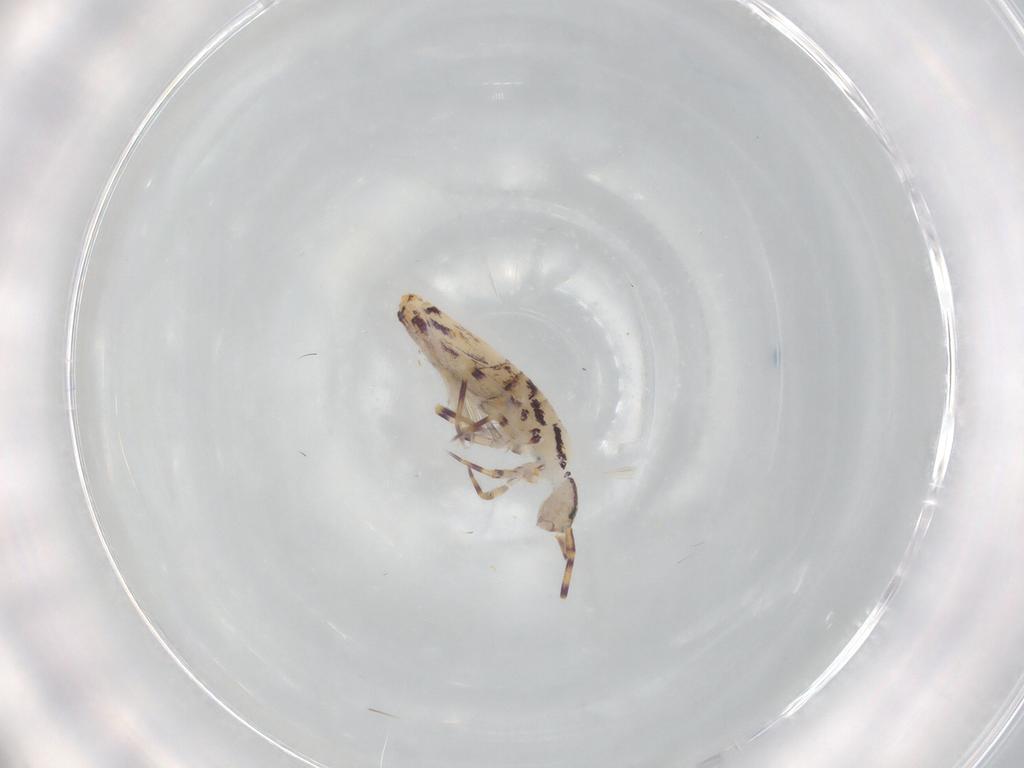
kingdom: Animalia
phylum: Arthropoda
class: Collembola
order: Entomobryomorpha
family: Entomobryidae
